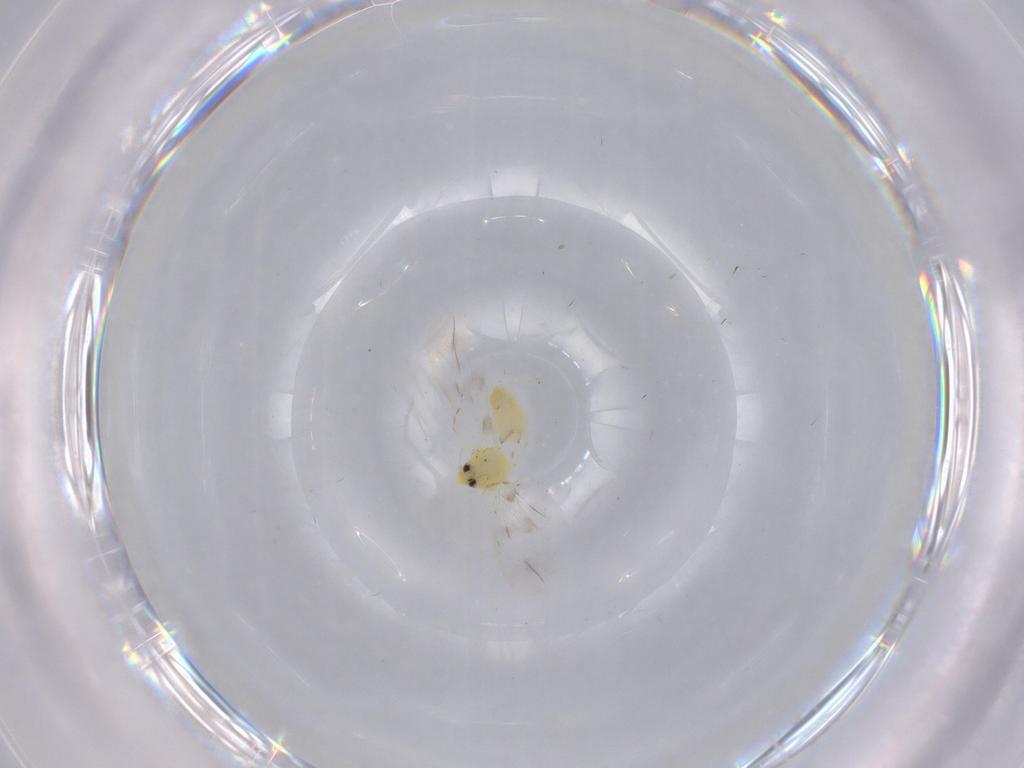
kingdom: Animalia
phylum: Arthropoda
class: Insecta
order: Hemiptera
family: Aleyrodidae
